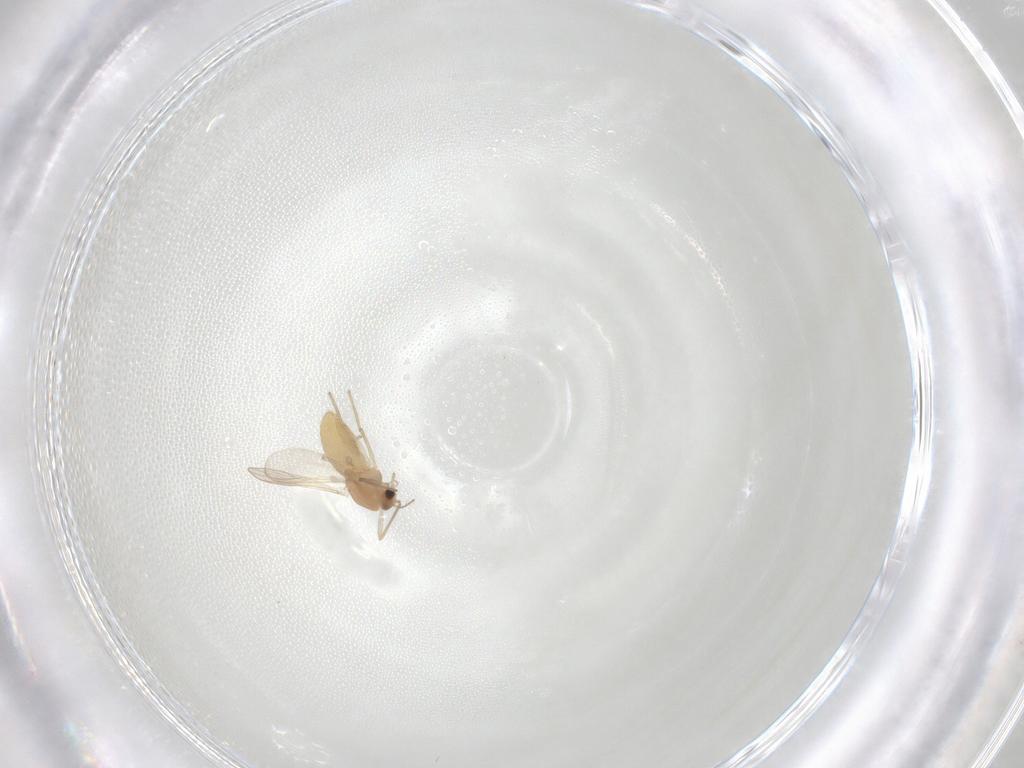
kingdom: Animalia
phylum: Arthropoda
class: Insecta
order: Diptera
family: Chironomidae
